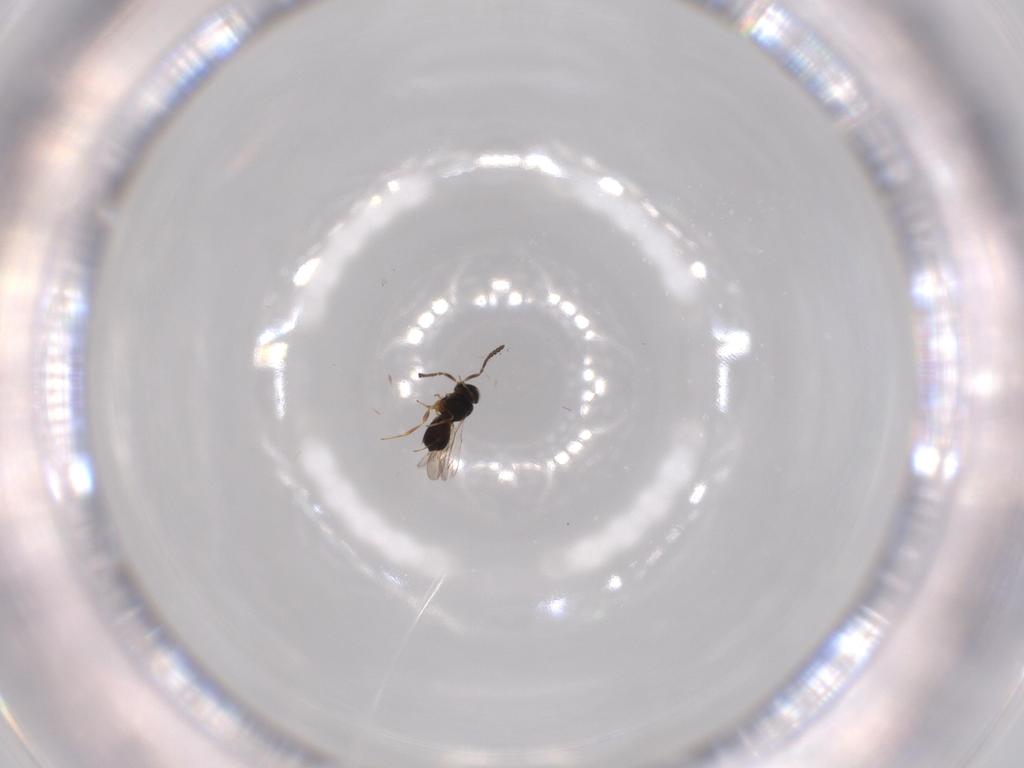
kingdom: Animalia
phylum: Arthropoda
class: Insecta
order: Hymenoptera
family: Scelionidae
